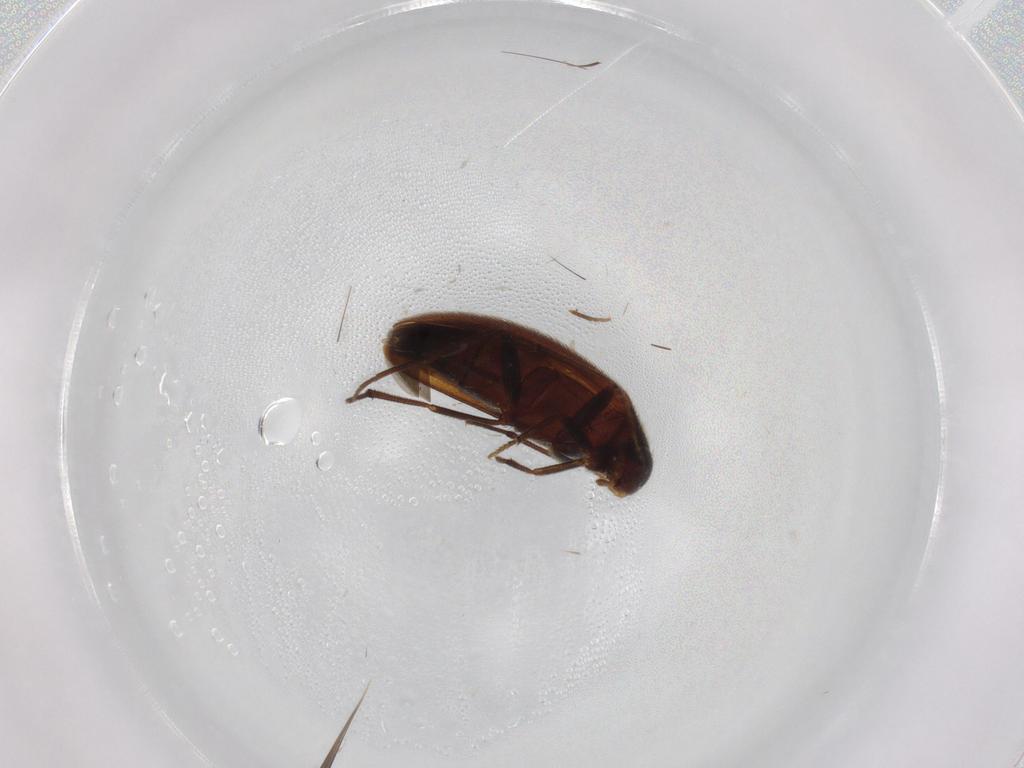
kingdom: Animalia
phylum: Arthropoda
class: Insecta
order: Coleoptera
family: Melandryidae
